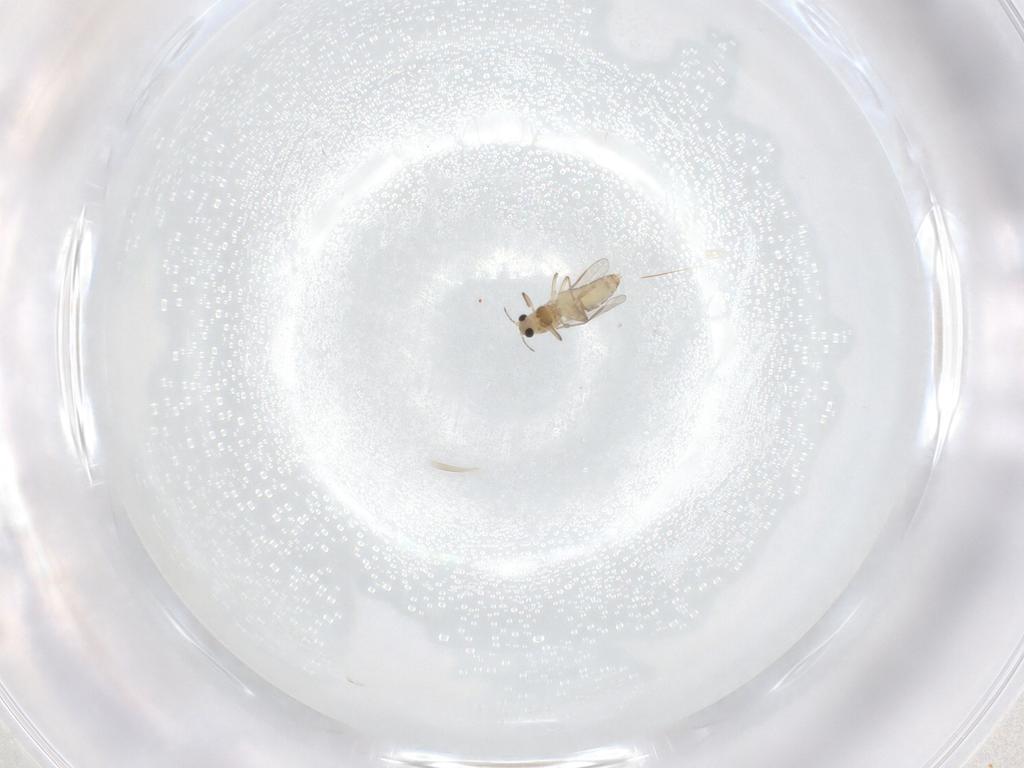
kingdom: Animalia
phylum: Arthropoda
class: Insecta
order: Diptera
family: Chironomidae
